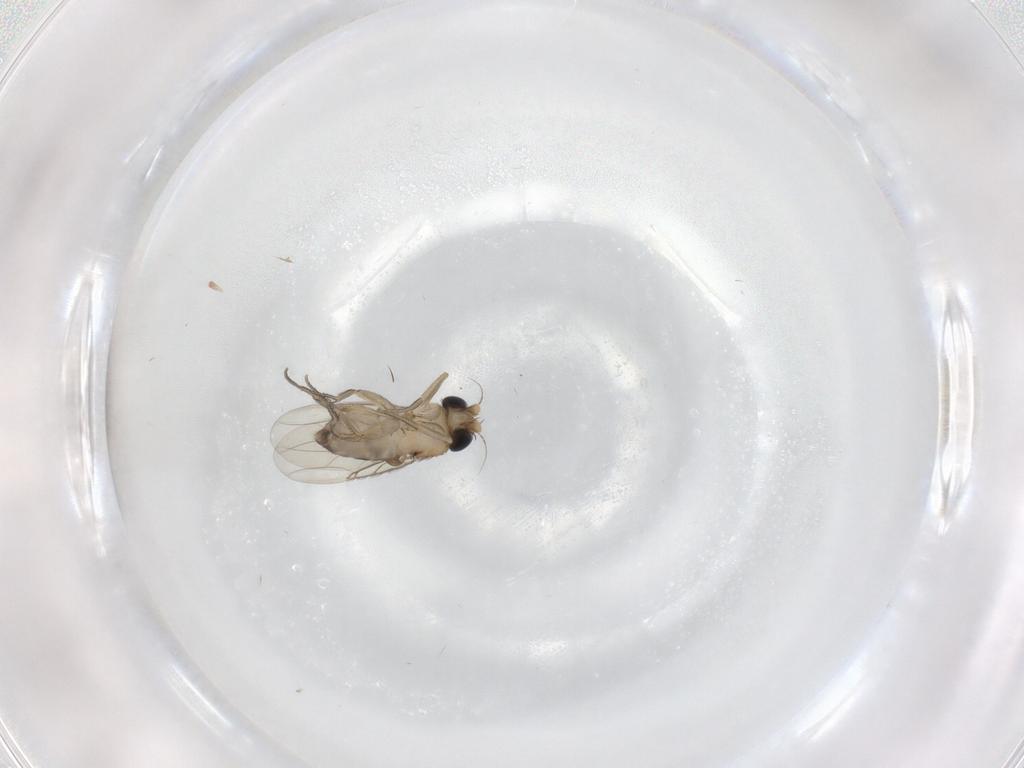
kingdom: Animalia
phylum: Arthropoda
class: Insecta
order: Diptera
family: Phoridae
